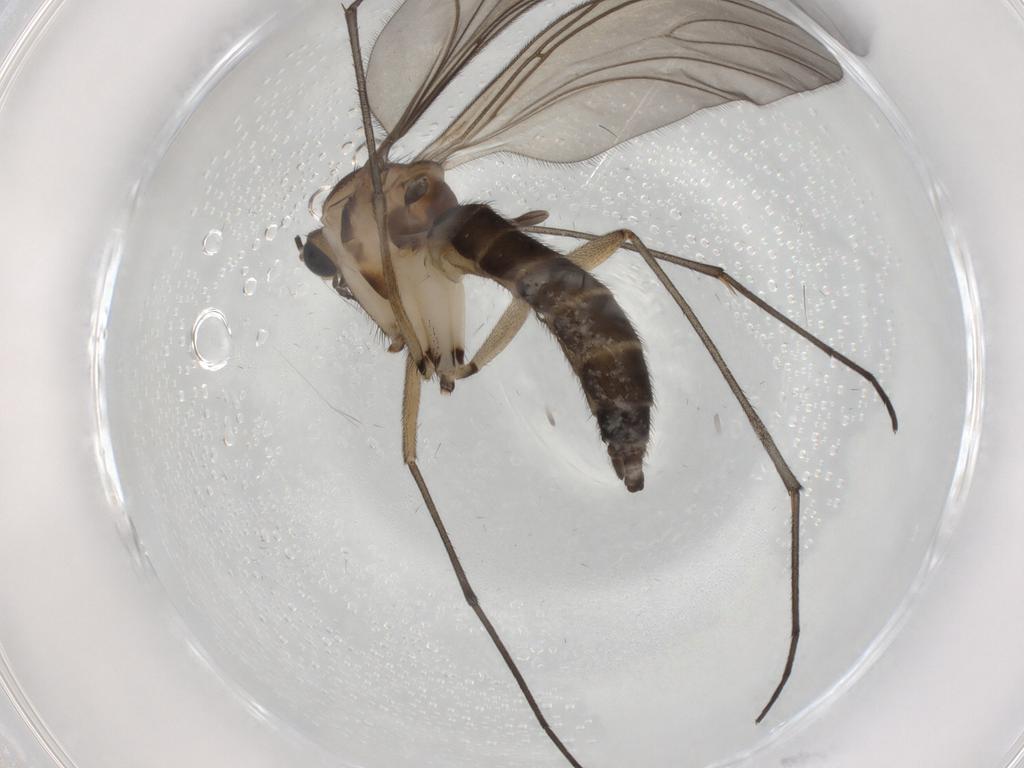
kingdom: Animalia
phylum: Arthropoda
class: Insecta
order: Diptera
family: Sciaridae
